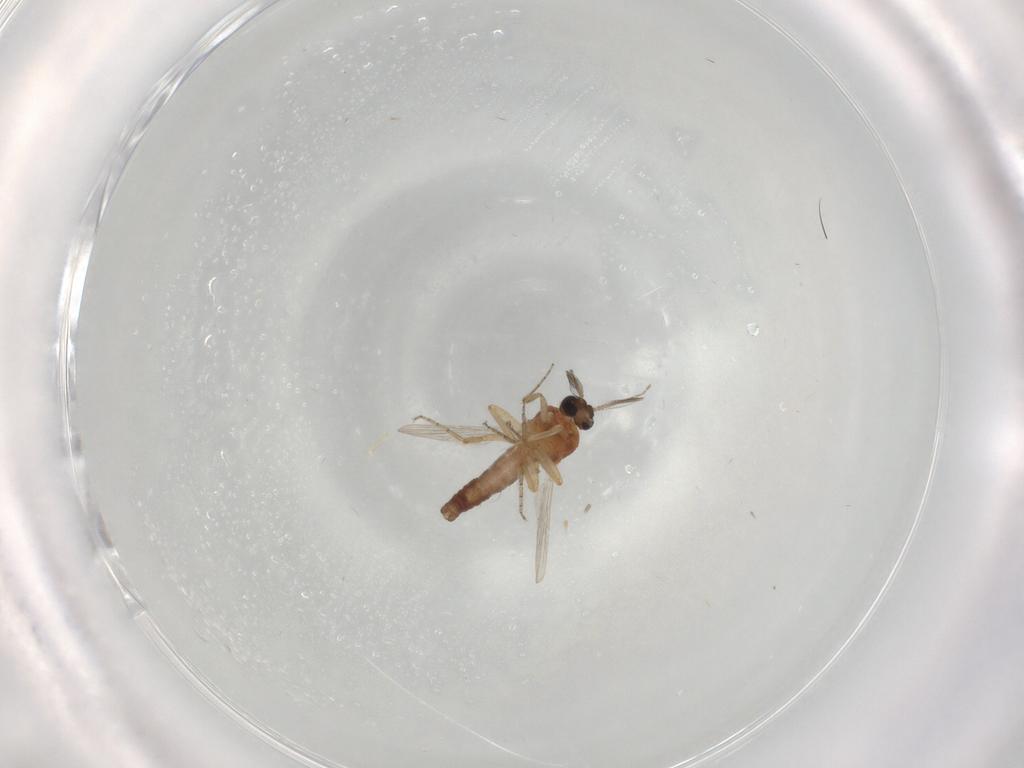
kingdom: Animalia
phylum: Arthropoda
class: Insecta
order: Diptera
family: Ceratopogonidae
